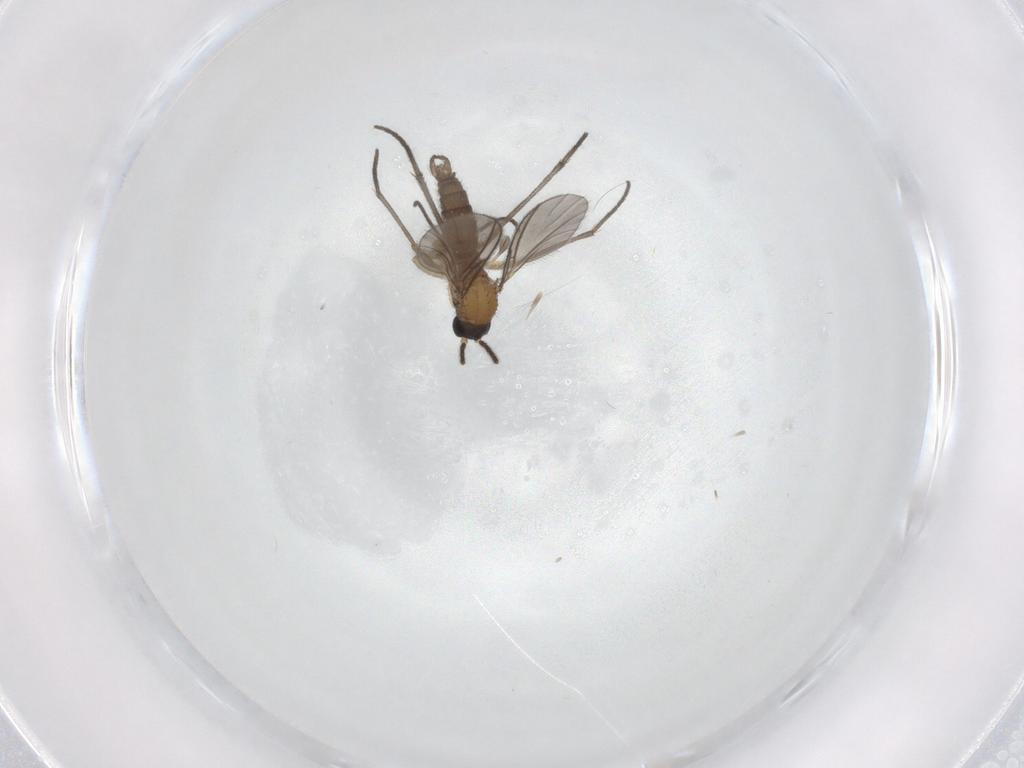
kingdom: Animalia
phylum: Arthropoda
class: Insecta
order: Diptera
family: Sciaridae
